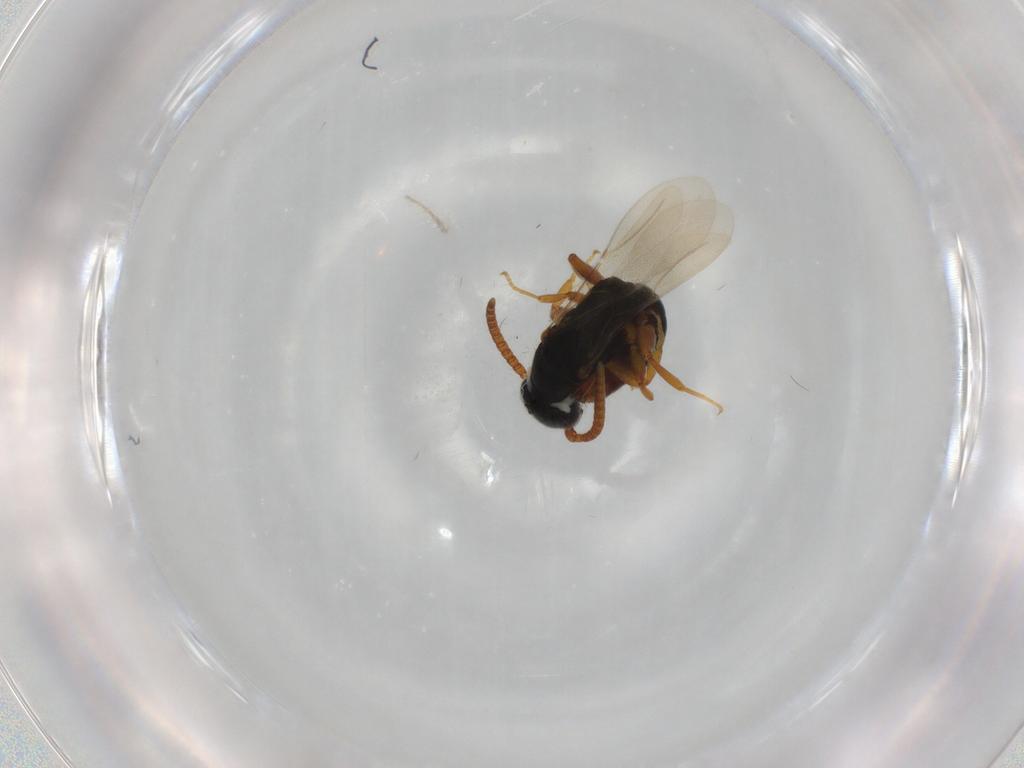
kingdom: Animalia
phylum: Arthropoda
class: Insecta
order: Hymenoptera
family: Bethylidae
